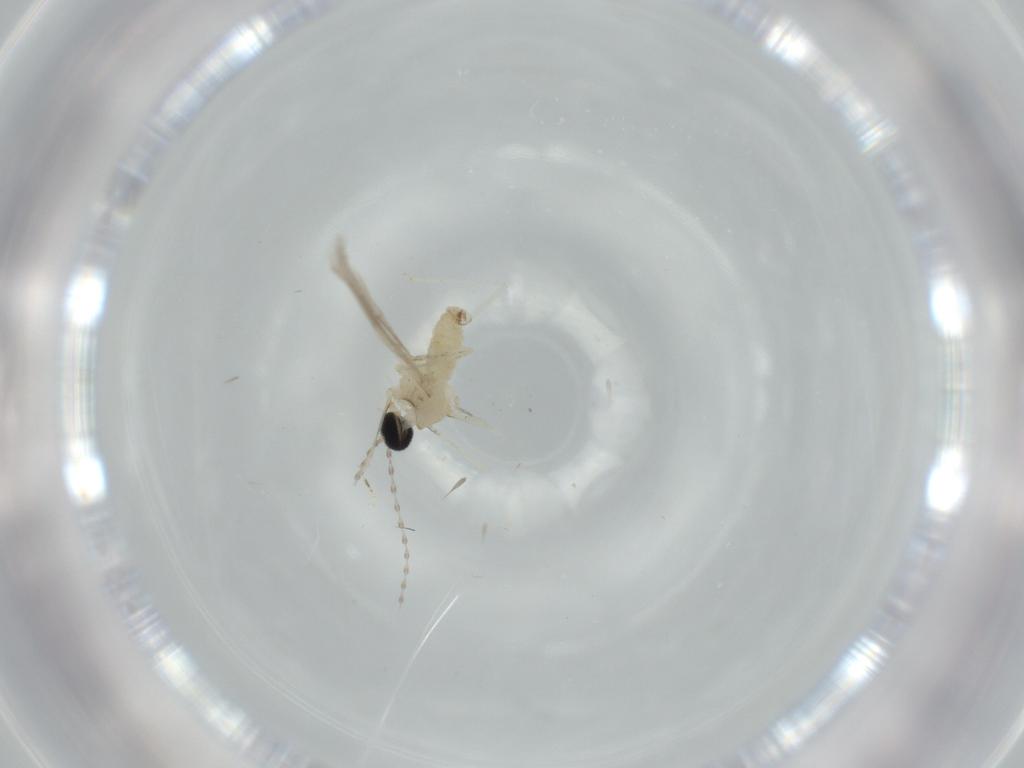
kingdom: Animalia
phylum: Arthropoda
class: Insecta
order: Diptera
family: Cecidomyiidae
